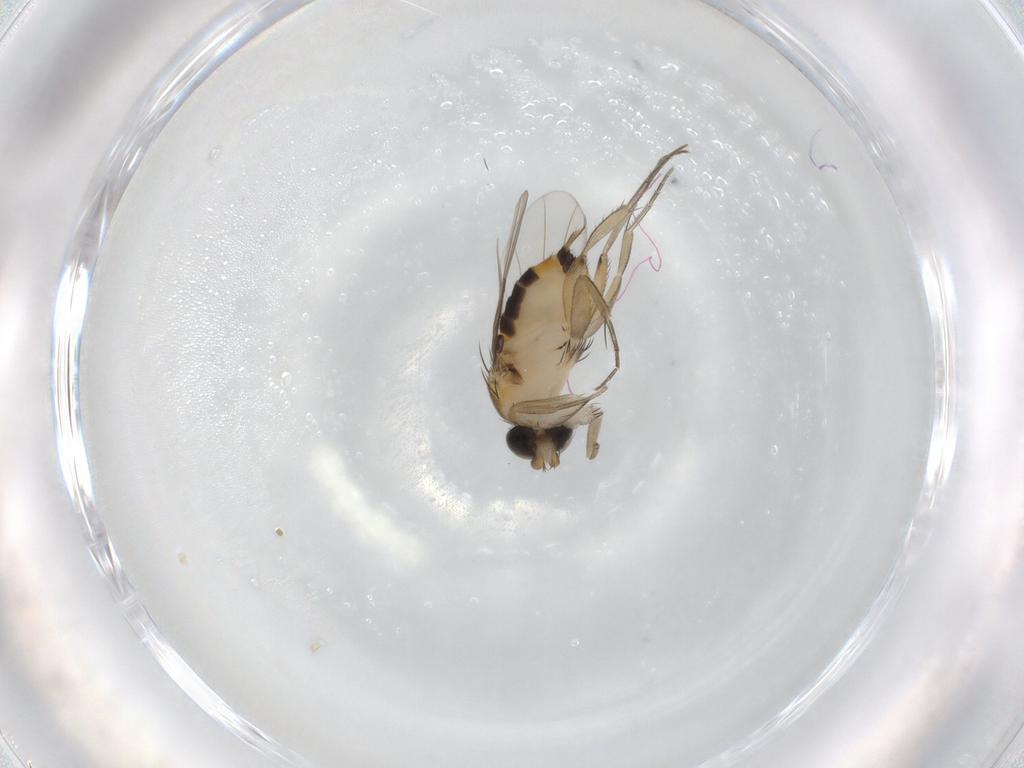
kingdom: Animalia
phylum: Arthropoda
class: Insecta
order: Diptera
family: Phoridae
